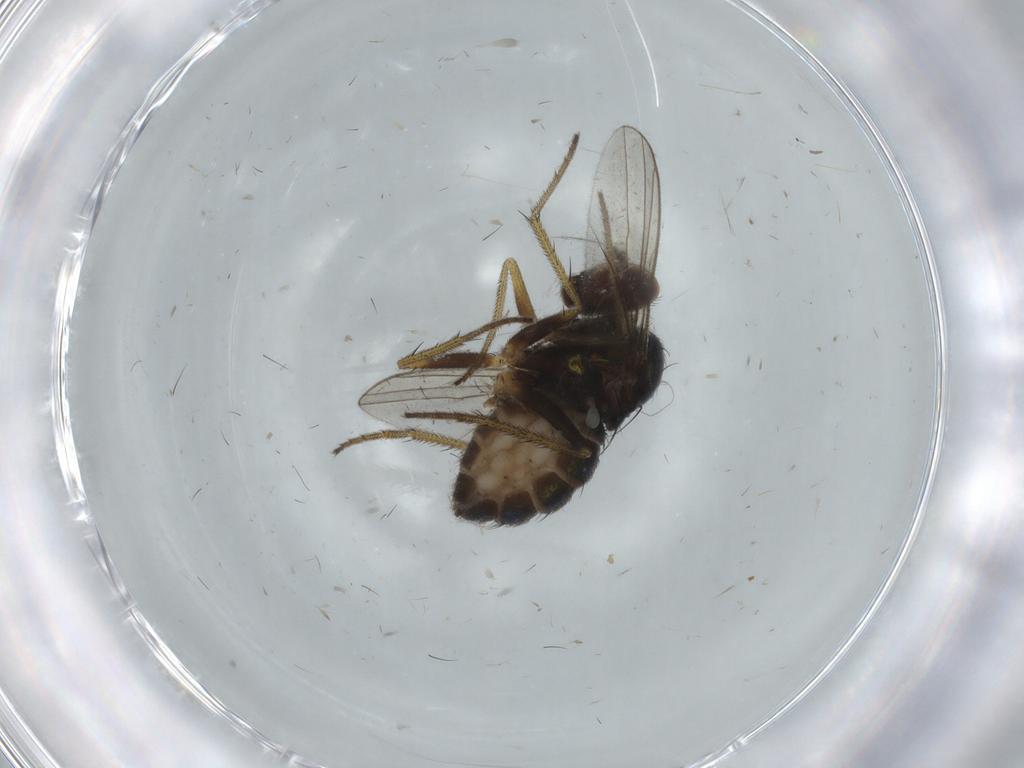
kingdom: Animalia
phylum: Arthropoda
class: Insecta
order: Diptera
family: Cecidomyiidae
